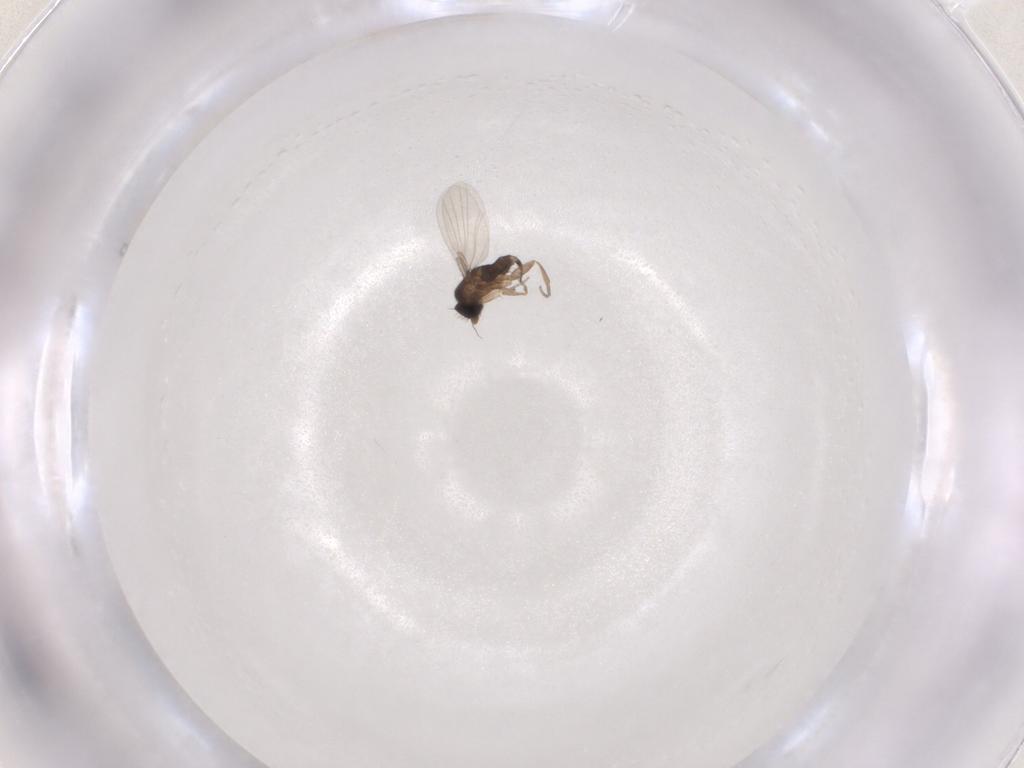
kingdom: Animalia
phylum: Arthropoda
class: Insecta
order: Diptera
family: Phoridae
